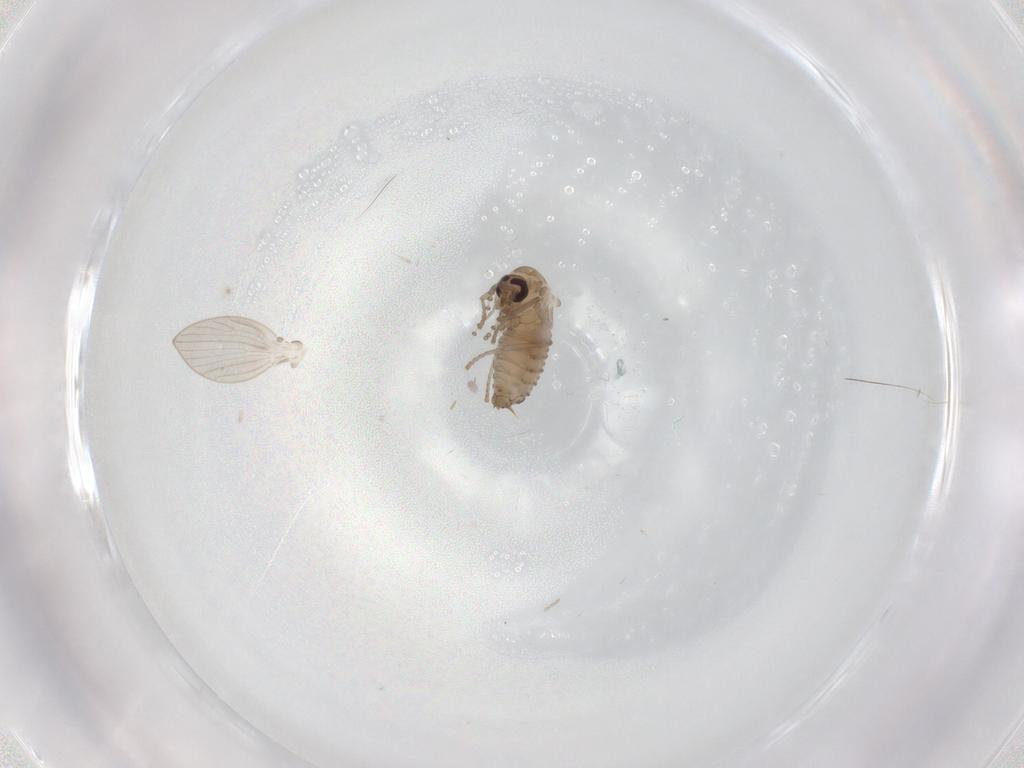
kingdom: Animalia
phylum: Arthropoda
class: Insecta
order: Diptera
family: Psychodidae
